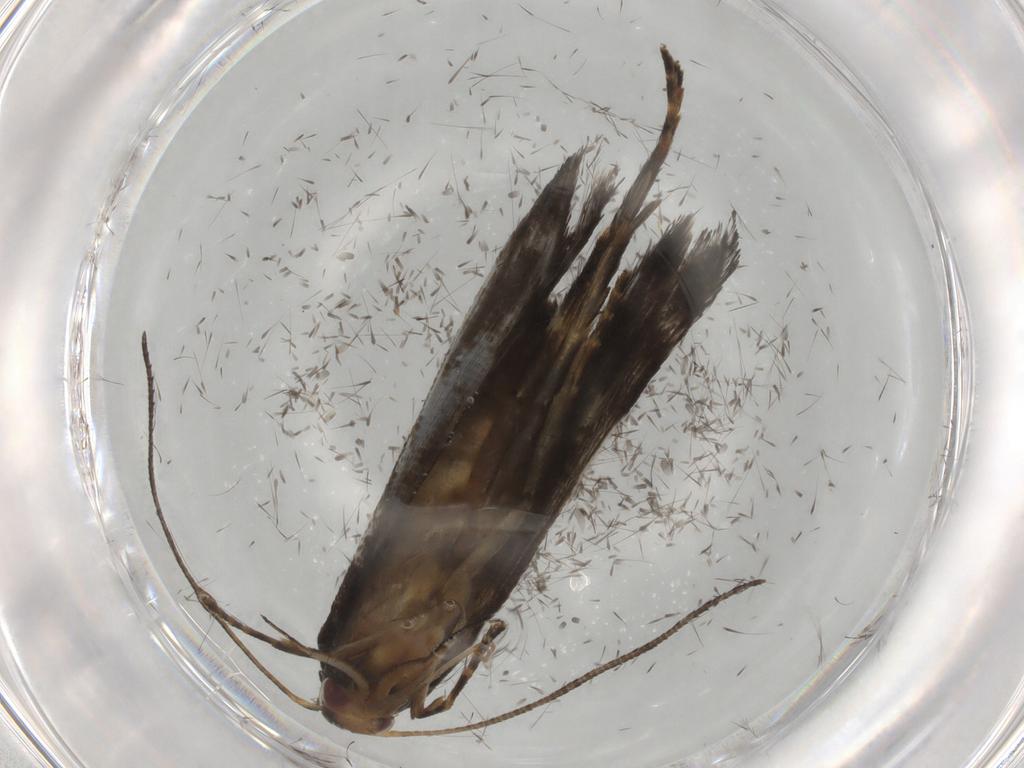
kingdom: Animalia
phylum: Arthropoda
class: Insecta
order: Lepidoptera
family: Gelechiidae
